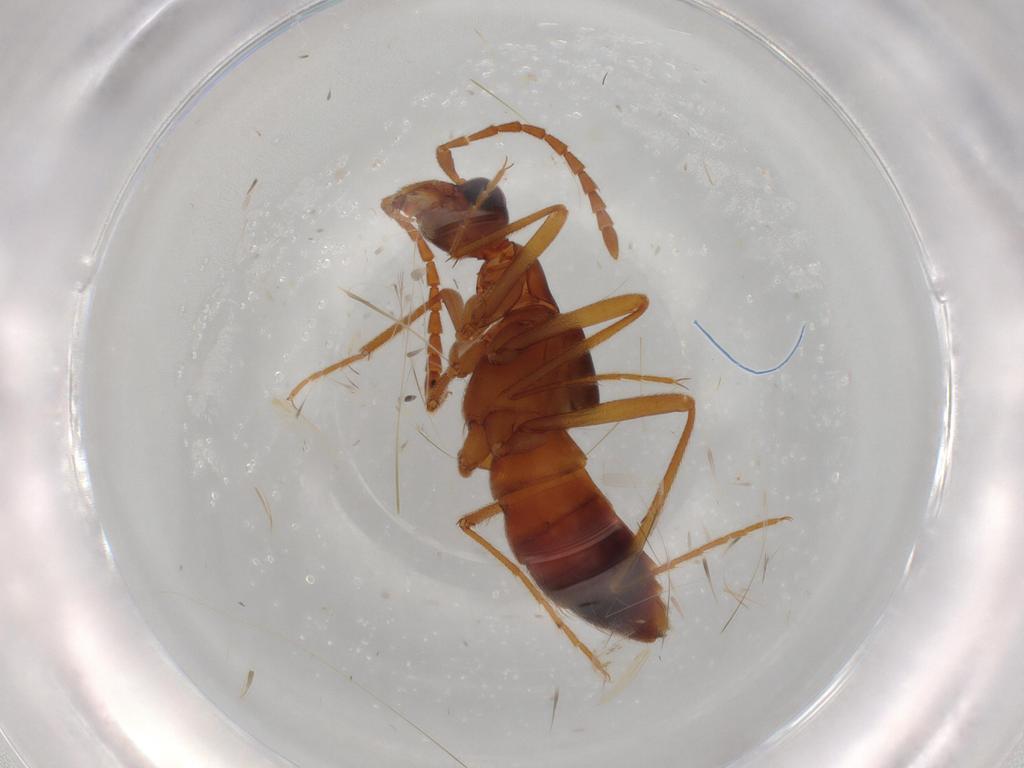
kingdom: Animalia
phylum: Arthropoda
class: Insecta
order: Coleoptera
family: Staphylinidae
